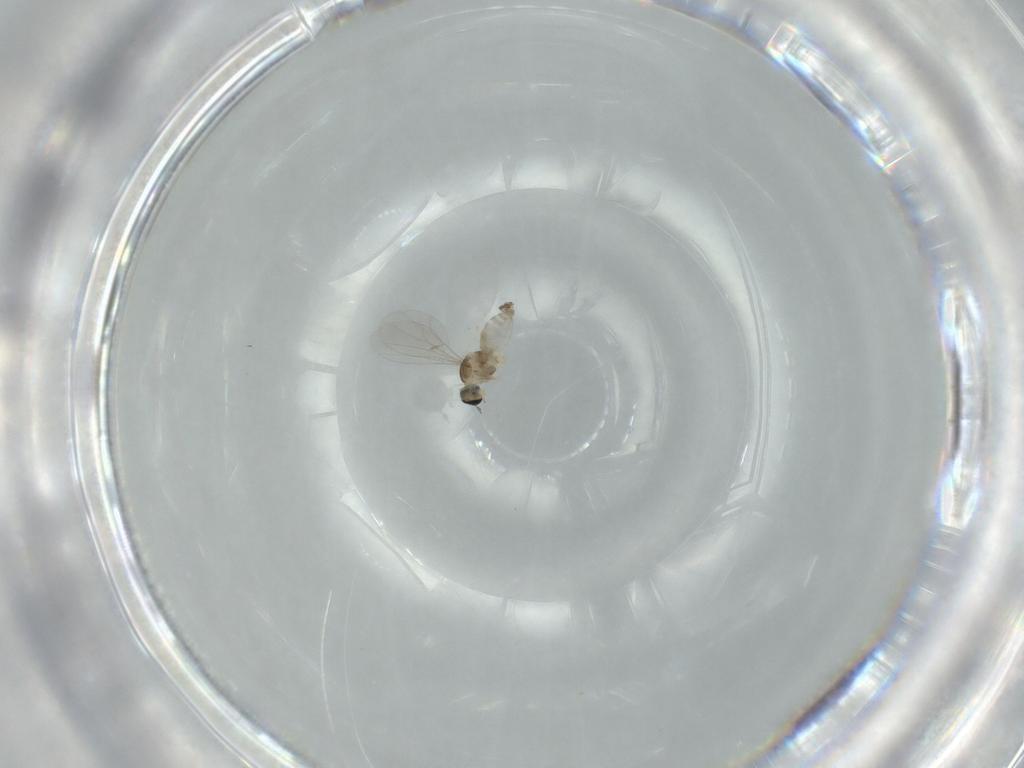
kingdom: Animalia
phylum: Arthropoda
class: Insecta
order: Diptera
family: Cecidomyiidae
